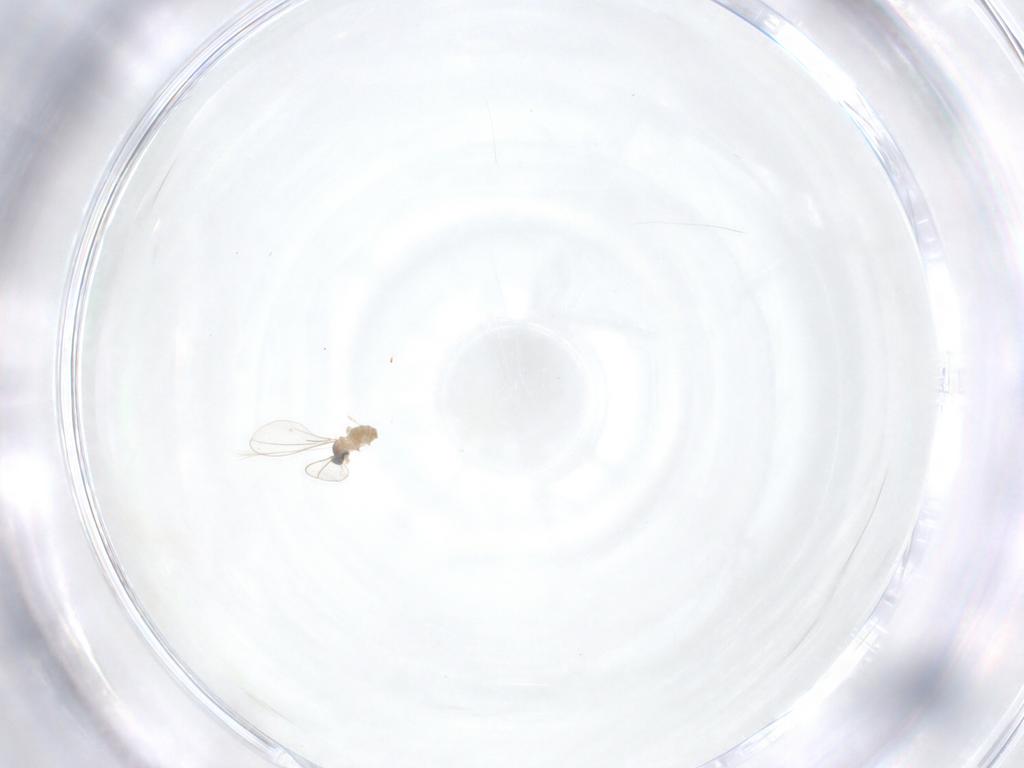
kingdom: Animalia
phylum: Arthropoda
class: Insecta
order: Diptera
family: Cecidomyiidae
